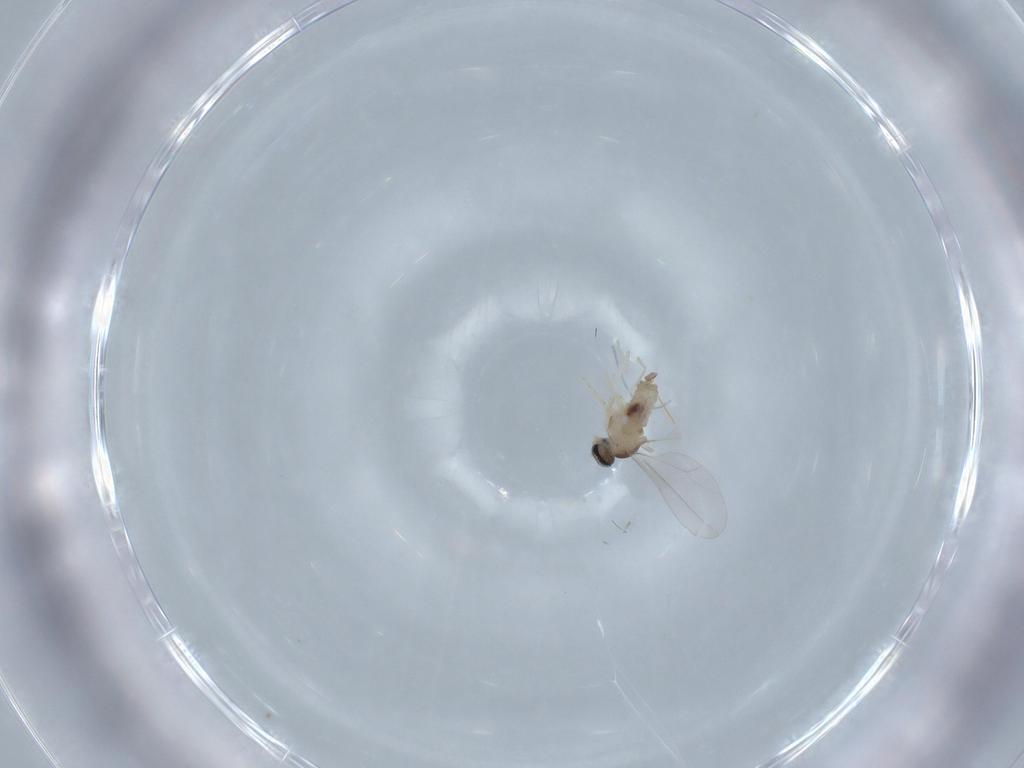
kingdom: Animalia
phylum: Arthropoda
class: Insecta
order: Diptera
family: Cecidomyiidae
